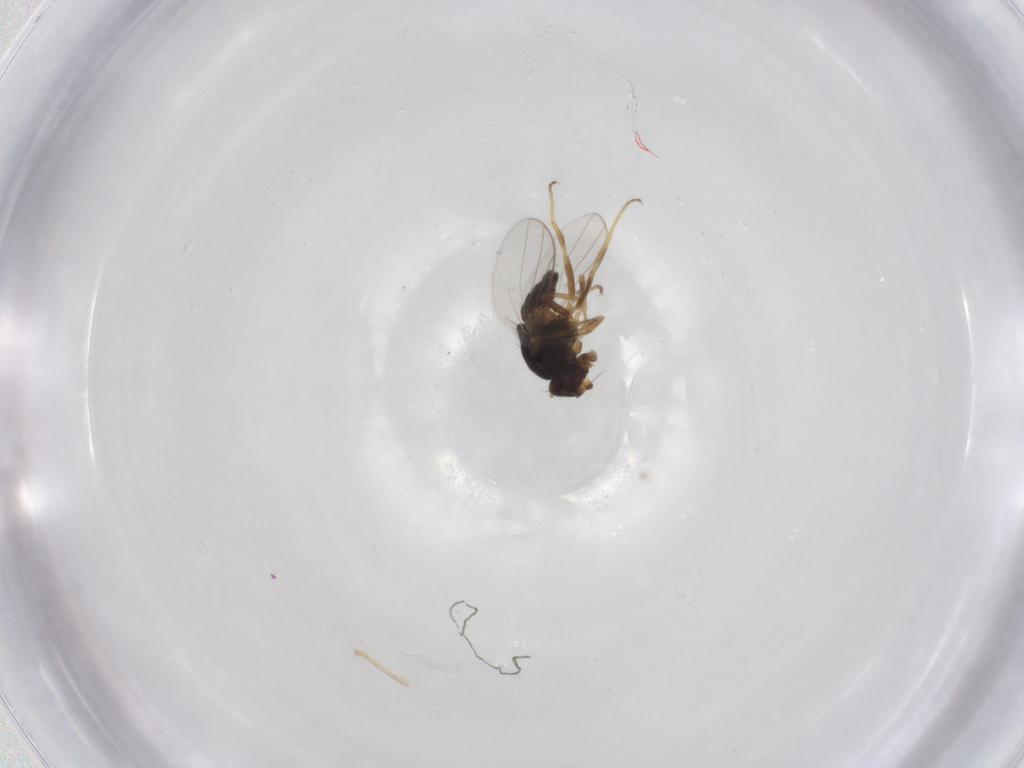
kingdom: Animalia
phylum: Arthropoda
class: Insecta
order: Diptera
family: Chloropidae
